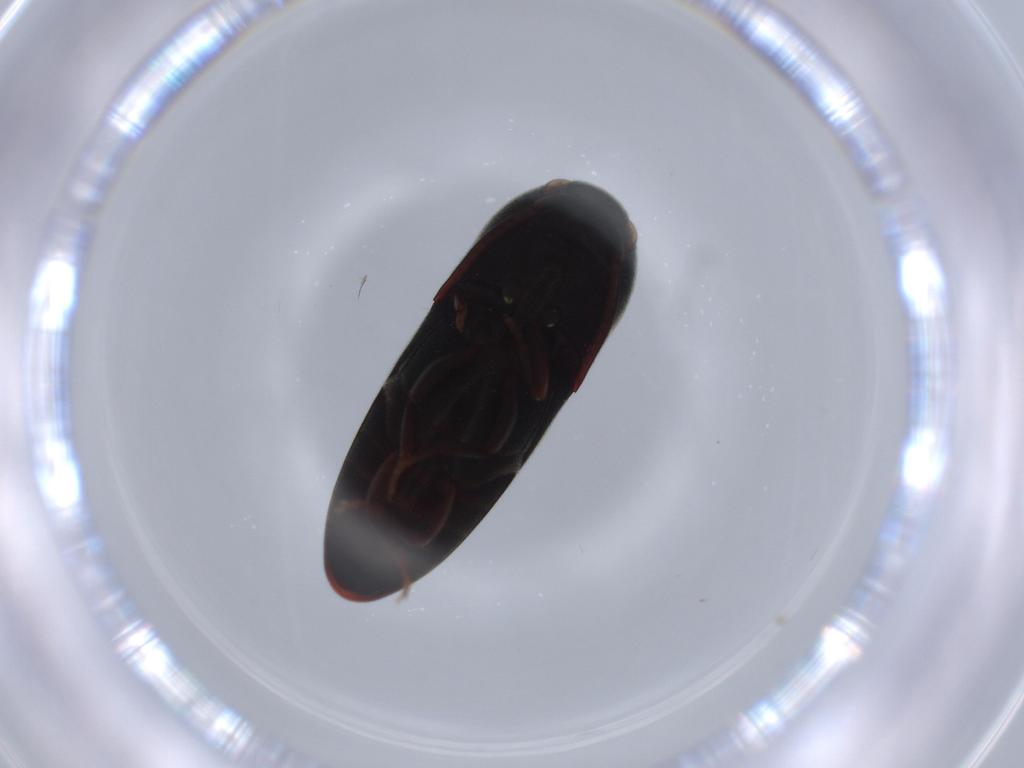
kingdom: Animalia
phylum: Arthropoda
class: Insecta
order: Coleoptera
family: Eucnemidae
